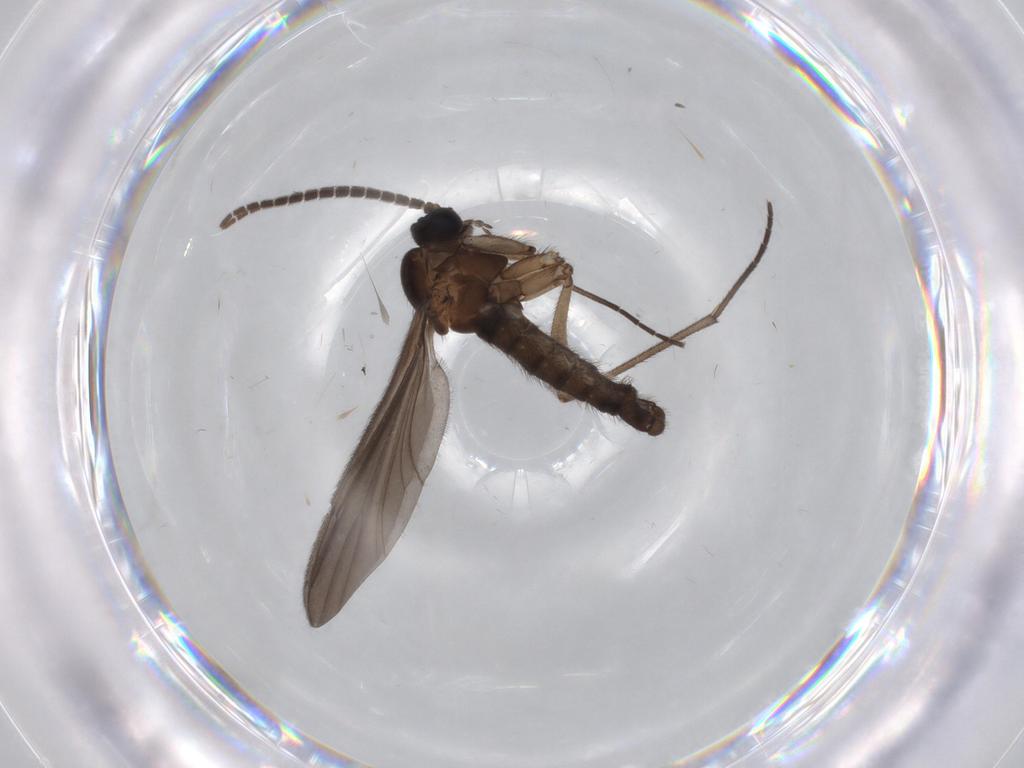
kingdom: Animalia
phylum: Arthropoda
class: Insecta
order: Diptera
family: Sciaridae
